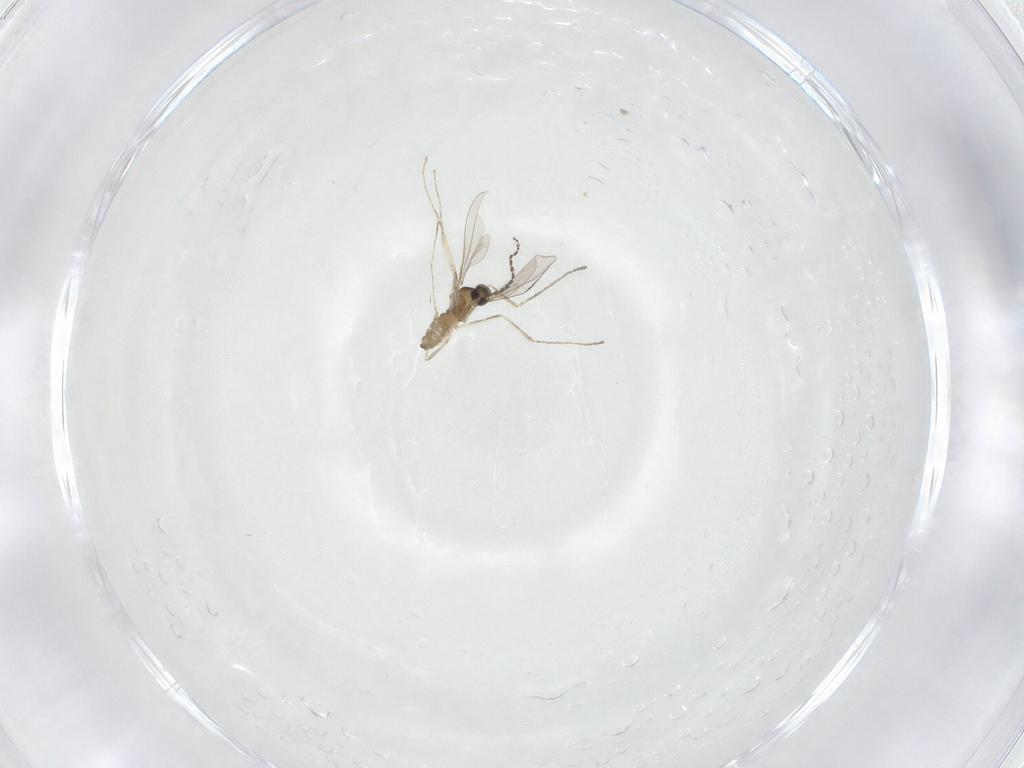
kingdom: Animalia
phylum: Arthropoda
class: Insecta
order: Diptera
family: Cecidomyiidae
